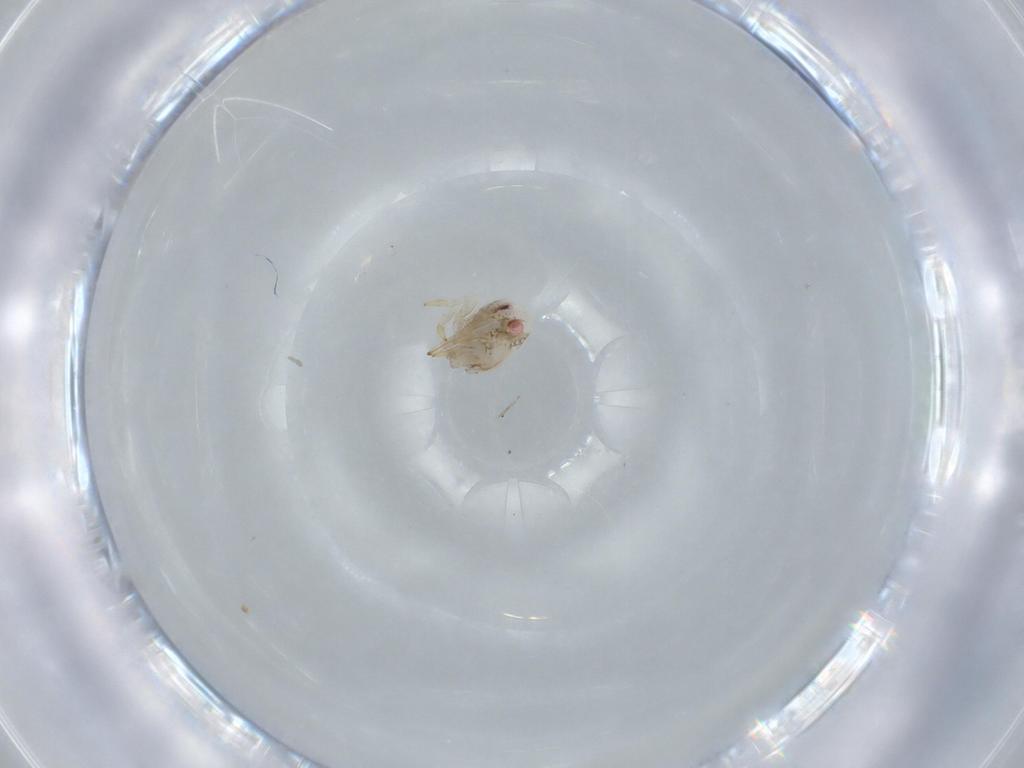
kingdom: Animalia
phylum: Arthropoda
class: Insecta
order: Hemiptera
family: Acanaloniidae
